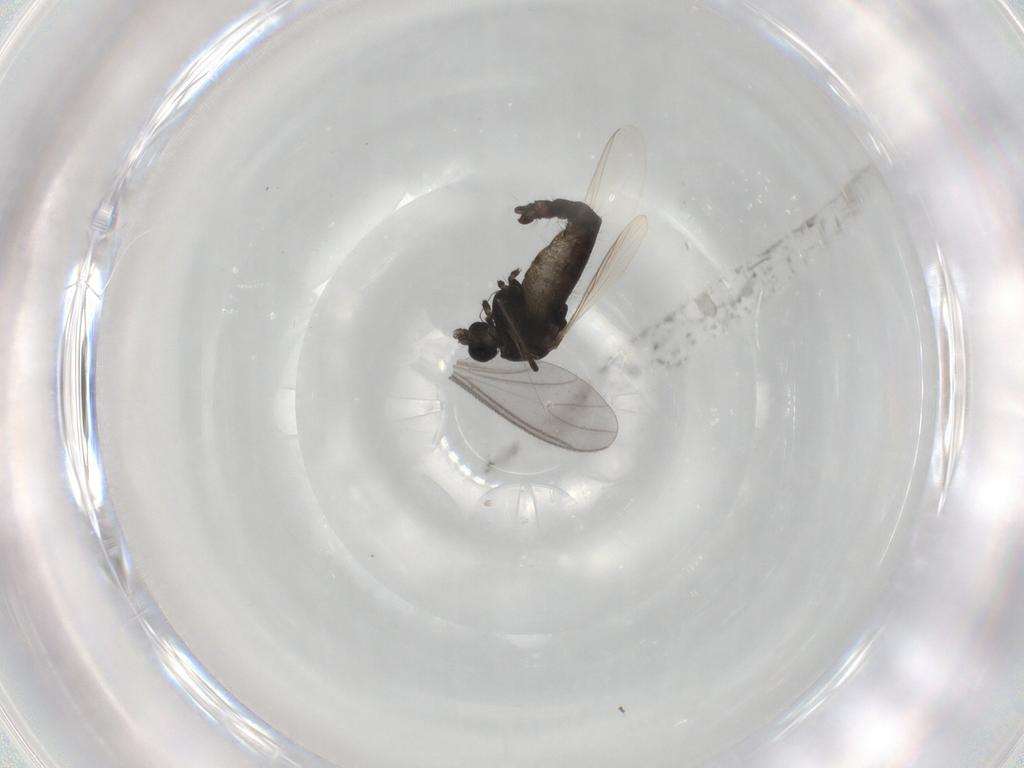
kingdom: Animalia
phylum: Arthropoda
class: Insecta
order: Diptera
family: Chironomidae
